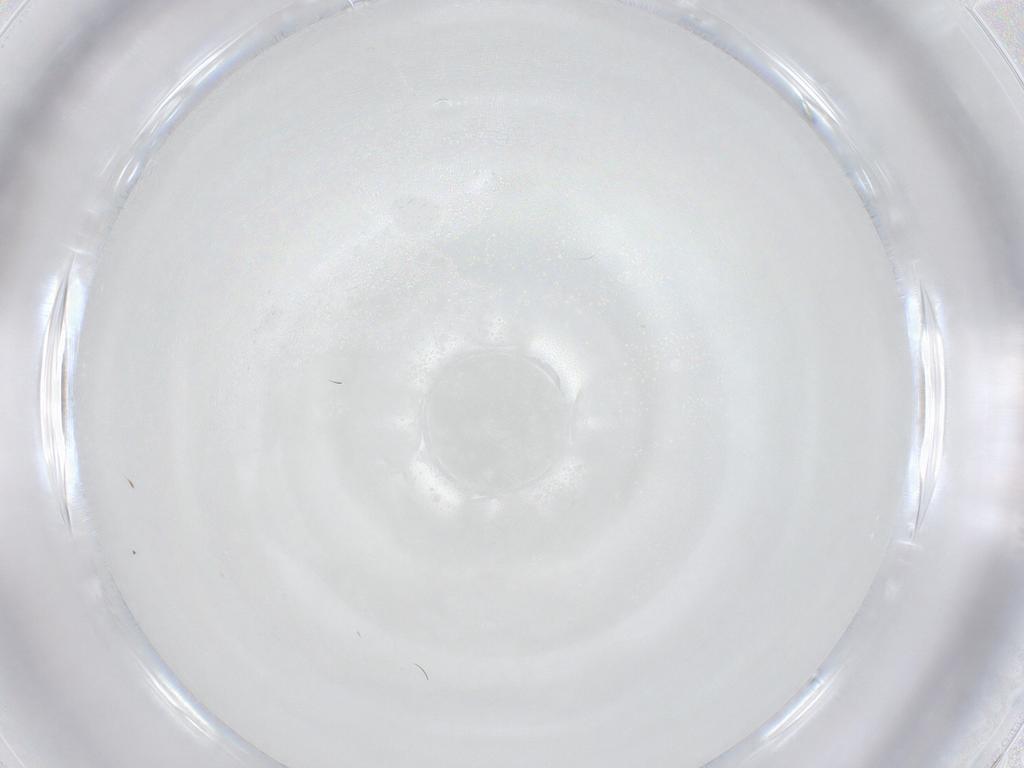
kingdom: Animalia
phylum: Arthropoda
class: Insecta
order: Diptera
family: Cecidomyiidae
